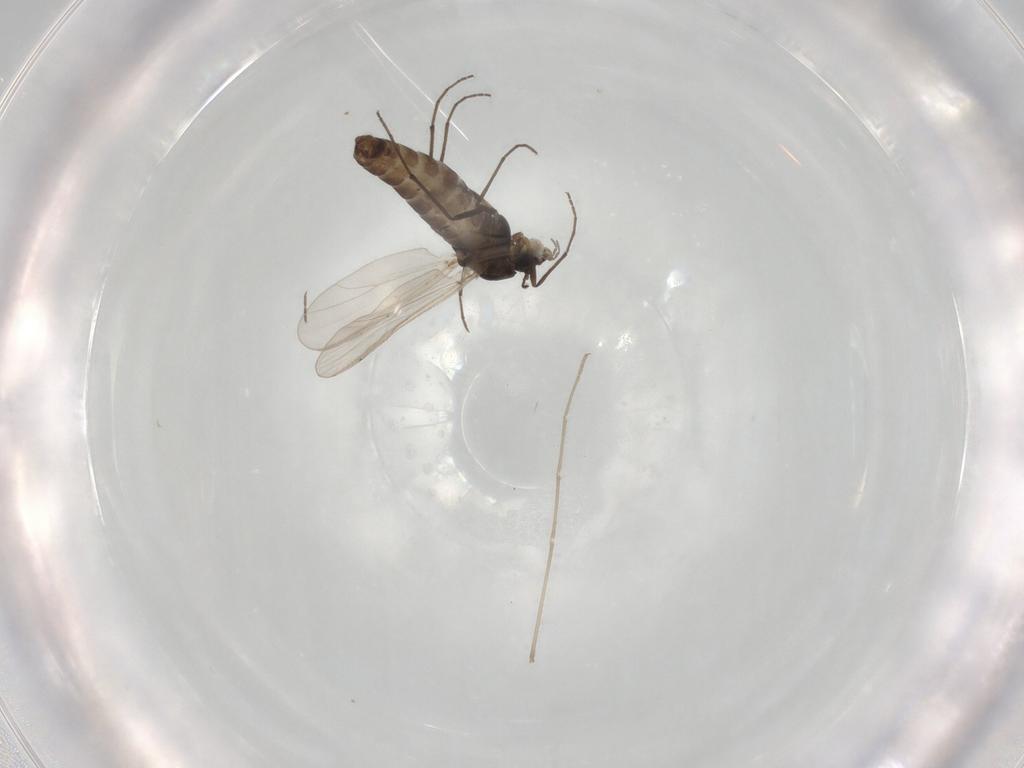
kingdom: Animalia
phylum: Arthropoda
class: Insecta
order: Diptera
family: Chironomidae
